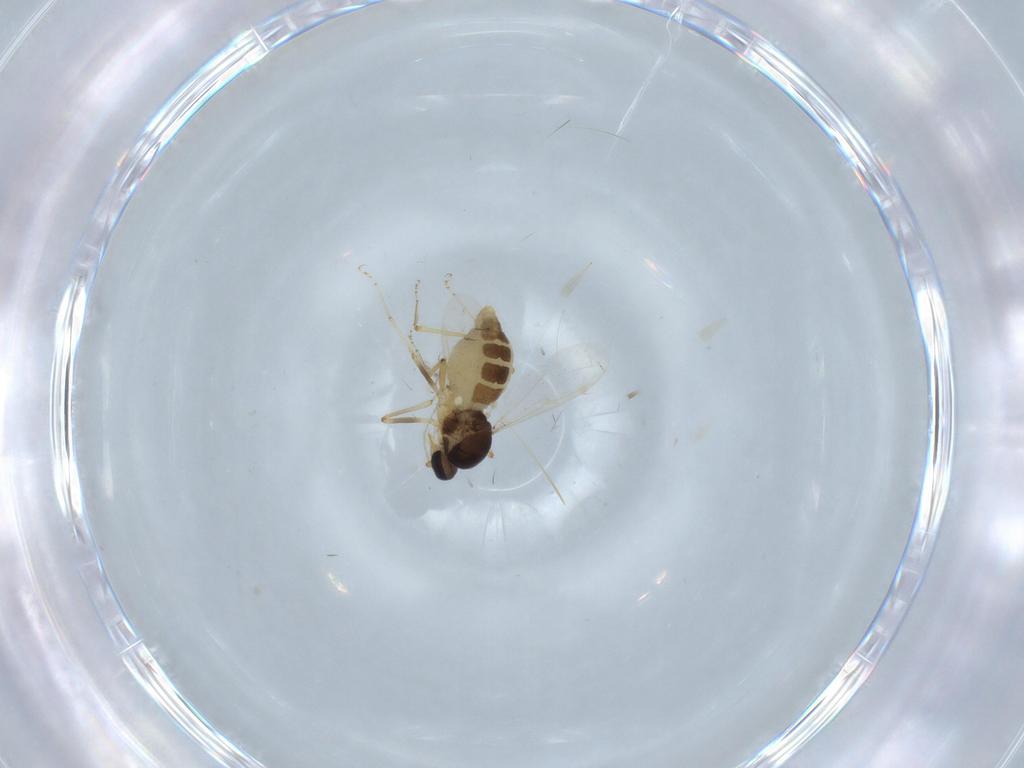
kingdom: Animalia
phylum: Arthropoda
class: Insecta
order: Diptera
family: Ceratopogonidae
